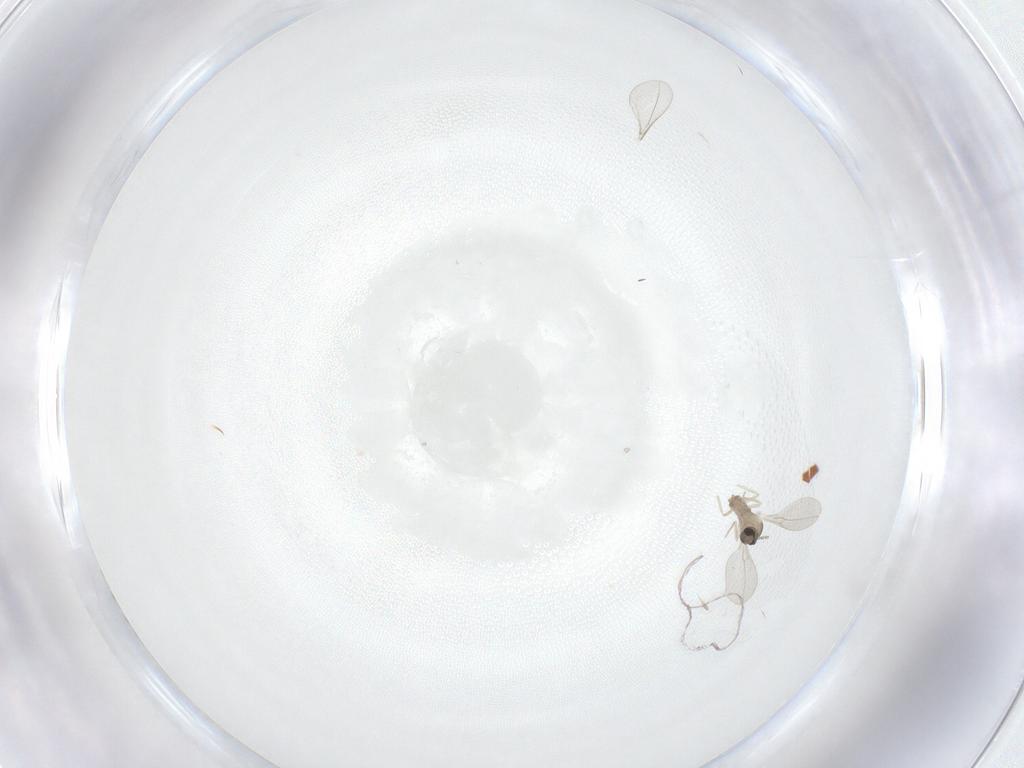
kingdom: Animalia
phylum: Arthropoda
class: Insecta
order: Diptera
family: Cecidomyiidae
